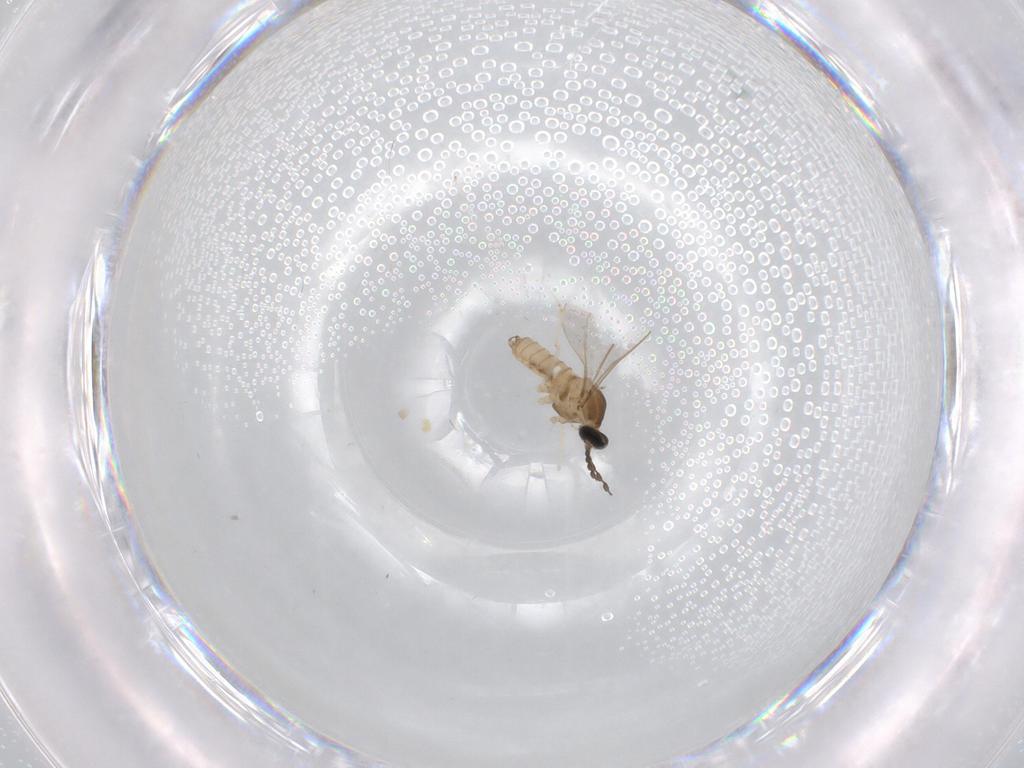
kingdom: Animalia
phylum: Arthropoda
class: Insecta
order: Diptera
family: Cecidomyiidae
